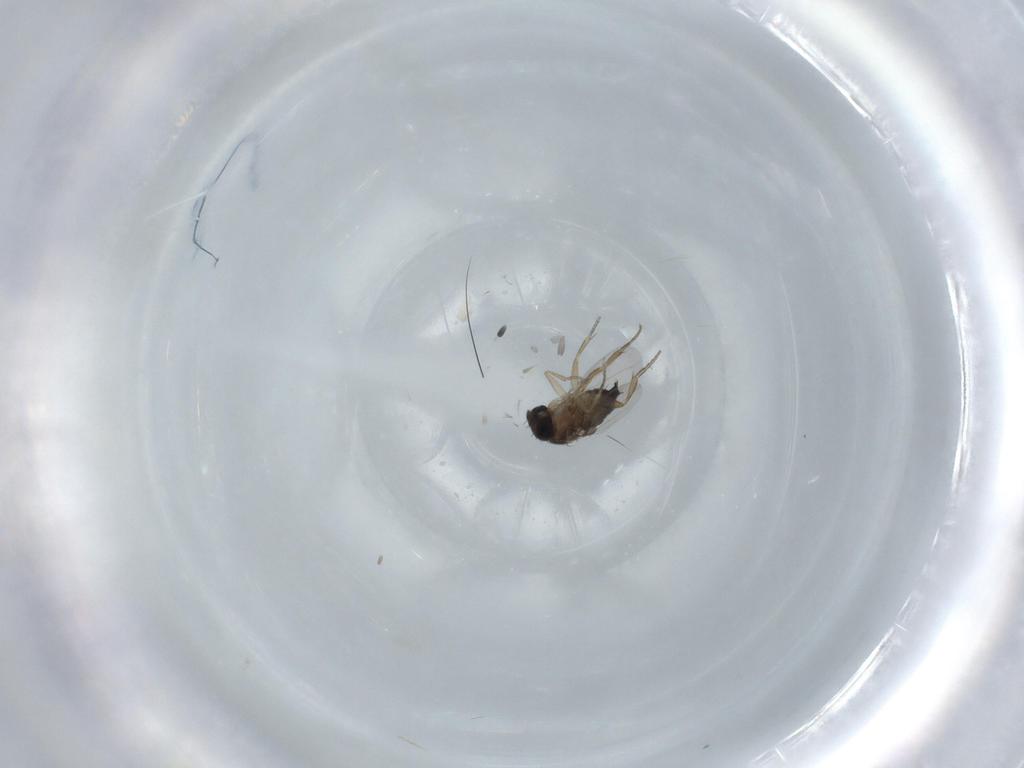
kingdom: Animalia
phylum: Arthropoda
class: Insecta
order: Diptera
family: Phoridae
